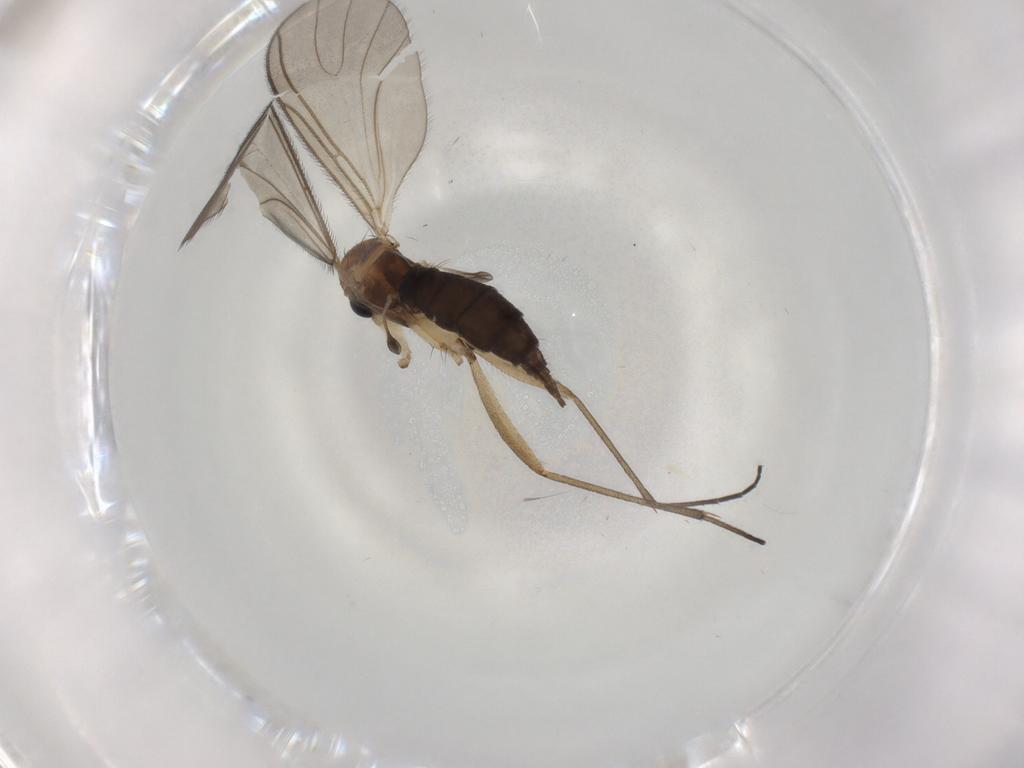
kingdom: Animalia
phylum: Arthropoda
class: Insecta
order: Diptera
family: Sciaridae
